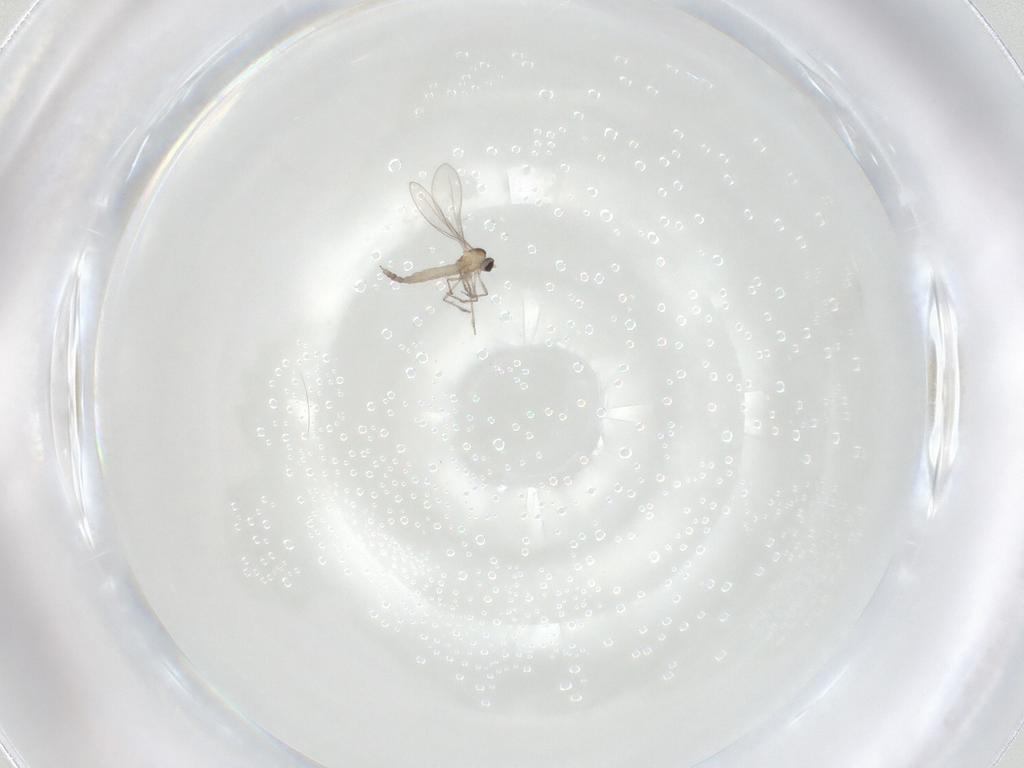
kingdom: Animalia
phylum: Arthropoda
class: Insecta
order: Diptera
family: Cecidomyiidae
